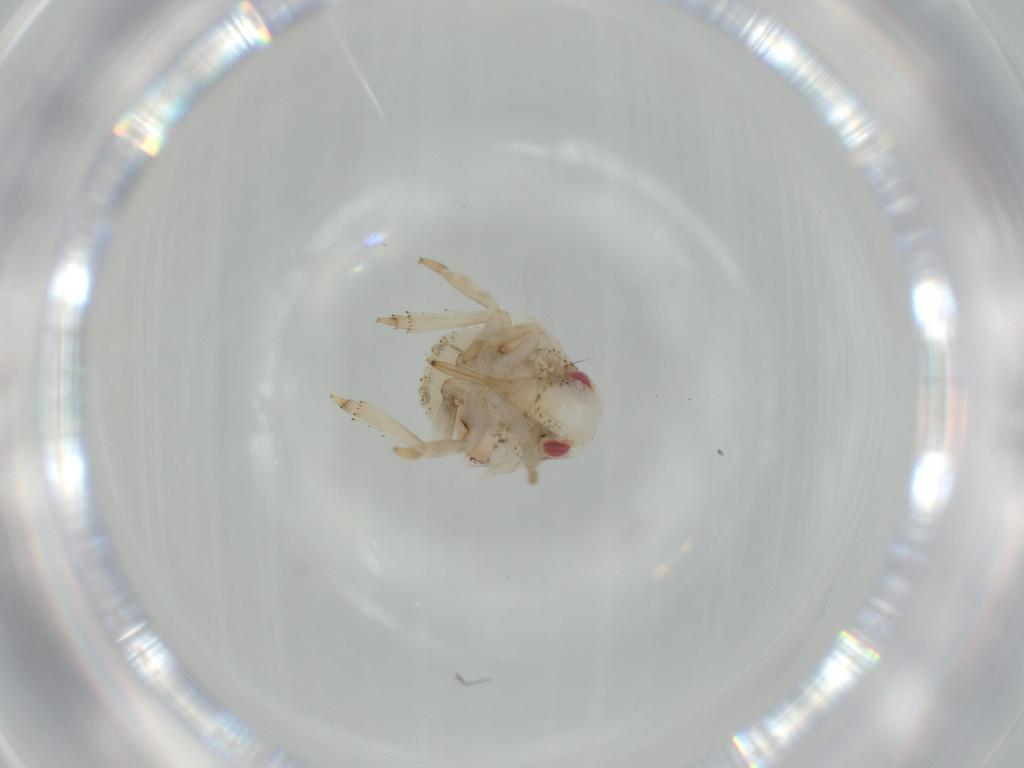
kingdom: Animalia
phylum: Arthropoda
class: Insecta
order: Hemiptera
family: Acanaloniidae
